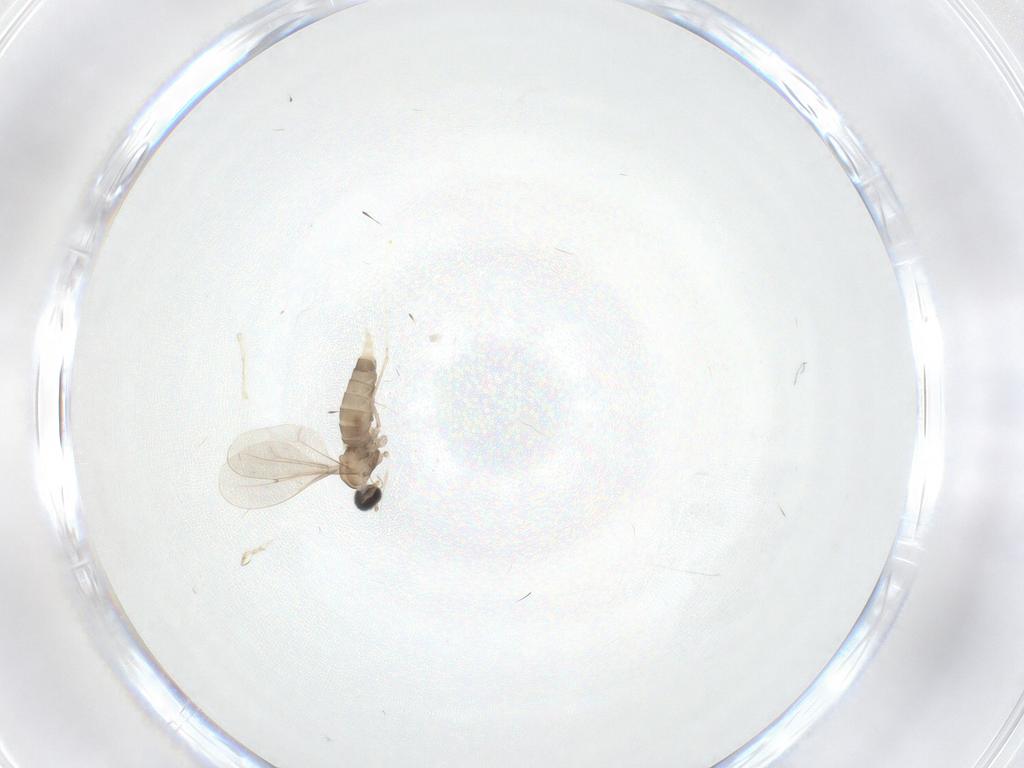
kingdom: Animalia
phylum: Arthropoda
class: Insecta
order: Diptera
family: Cecidomyiidae
